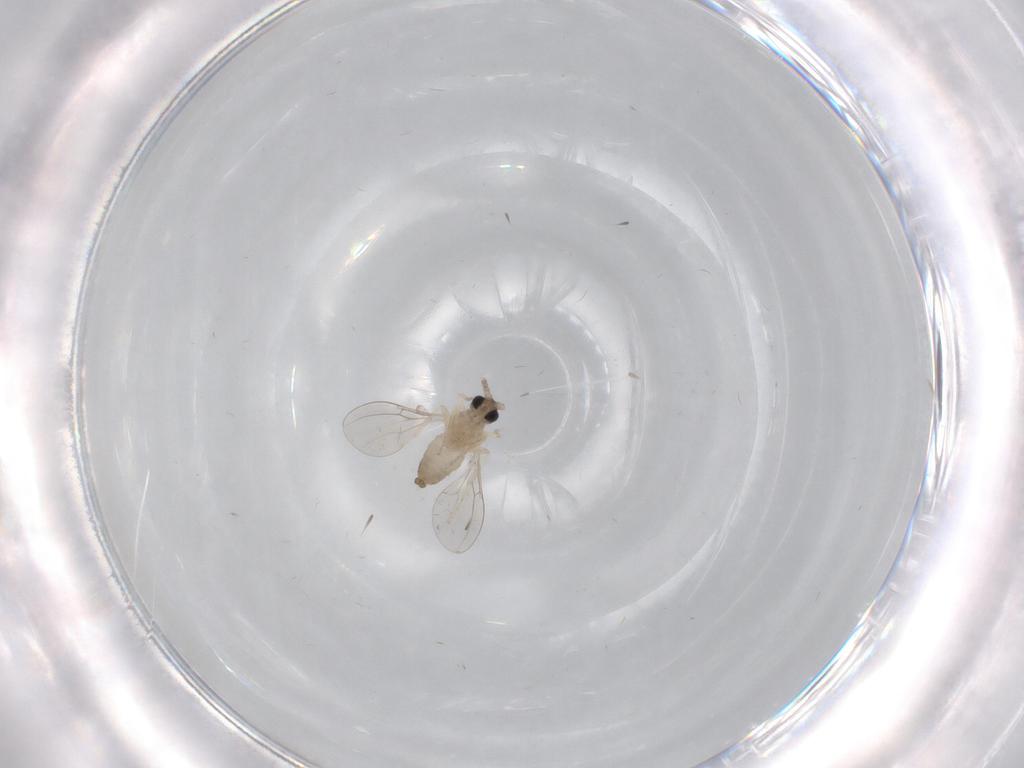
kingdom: Animalia
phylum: Arthropoda
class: Insecta
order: Diptera
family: Cecidomyiidae
